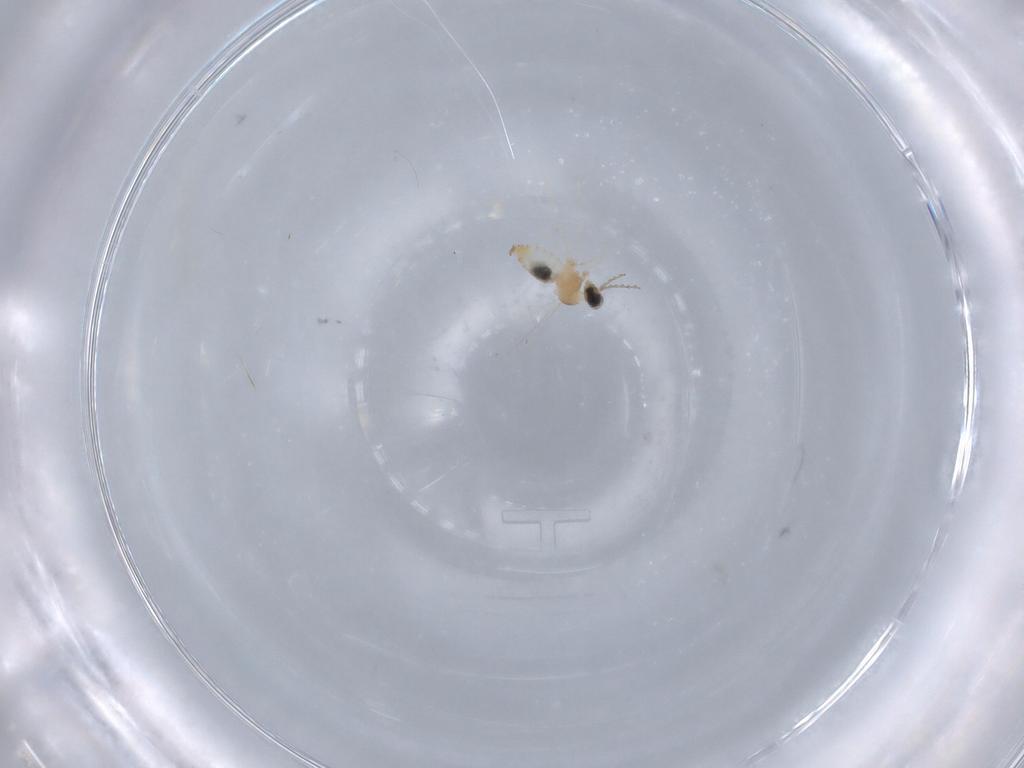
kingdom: Animalia
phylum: Arthropoda
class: Insecta
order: Diptera
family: Cecidomyiidae
